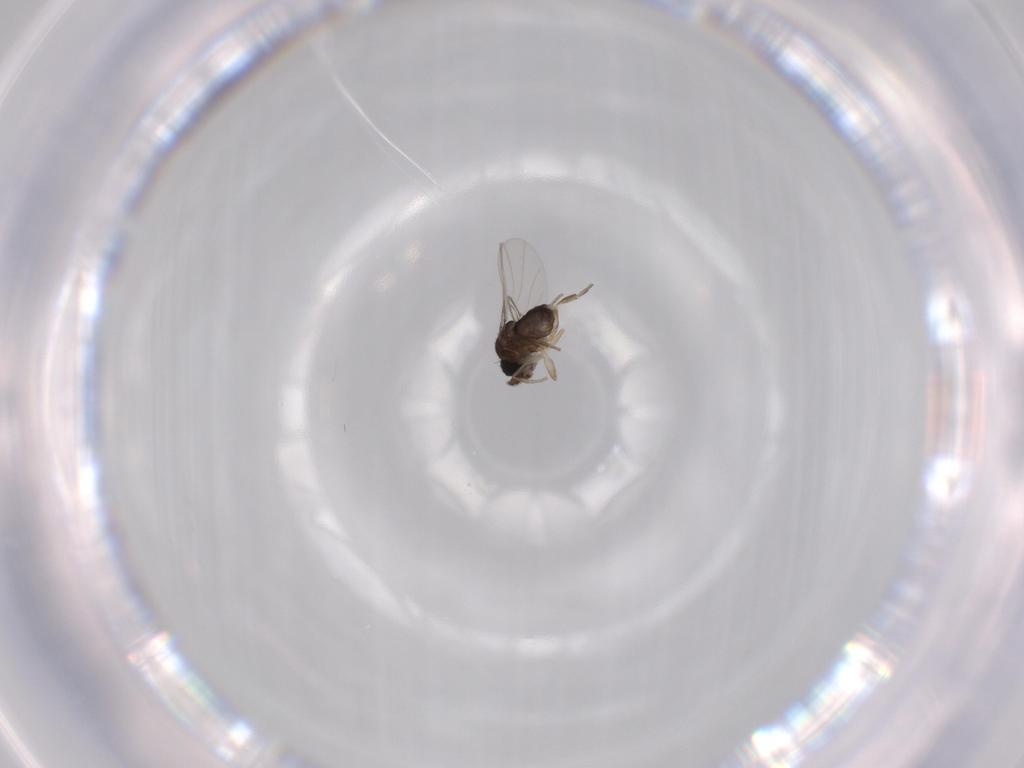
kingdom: Animalia
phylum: Arthropoda
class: Insecta
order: Diptera
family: Phoridae
